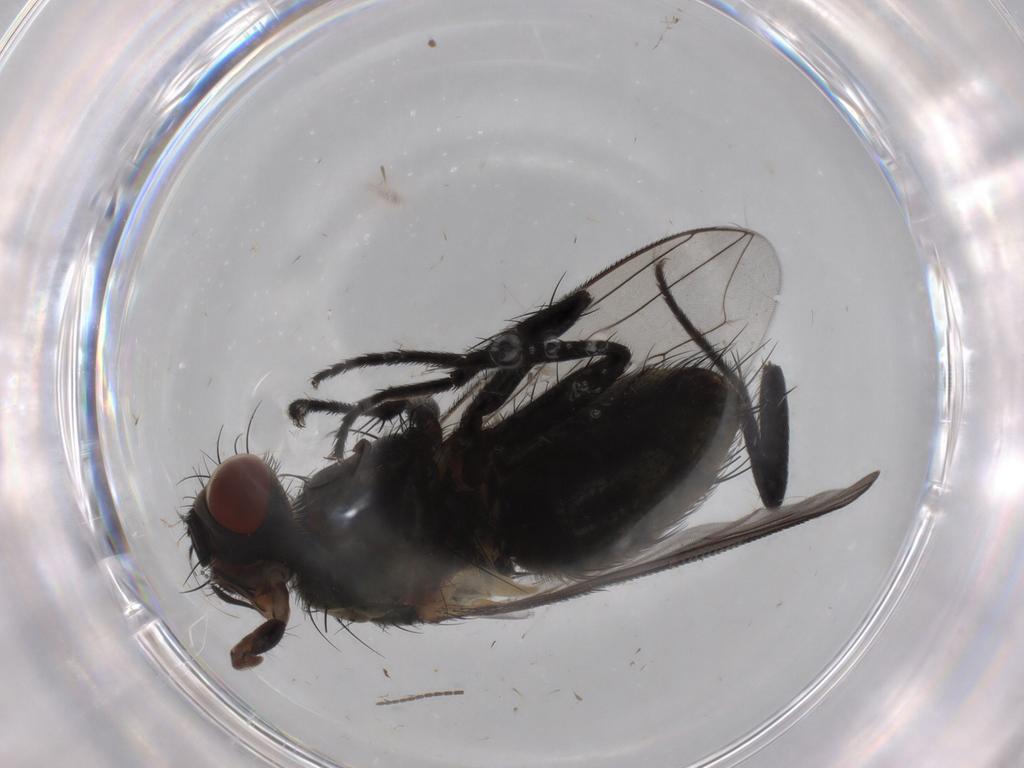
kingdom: Animalia
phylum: Arthropoda
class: Insecta
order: Diptera
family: Sarcophagidae
